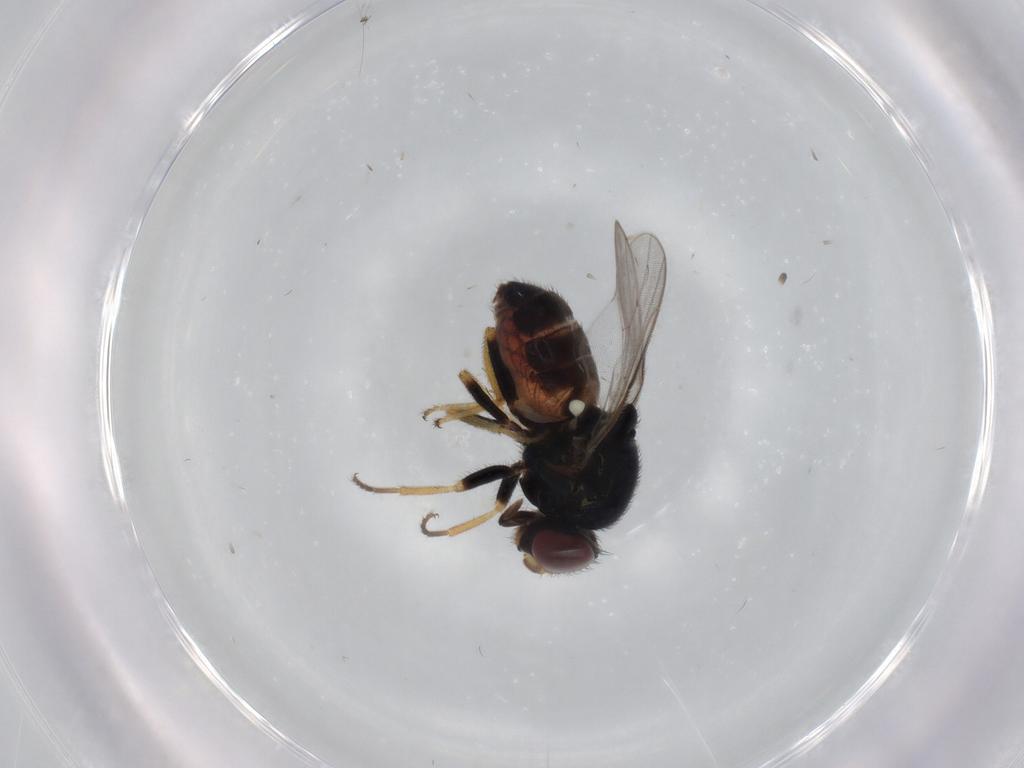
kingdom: Animalia
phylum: Arthropoda
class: Insecta
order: Diptera
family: Chloropidae
